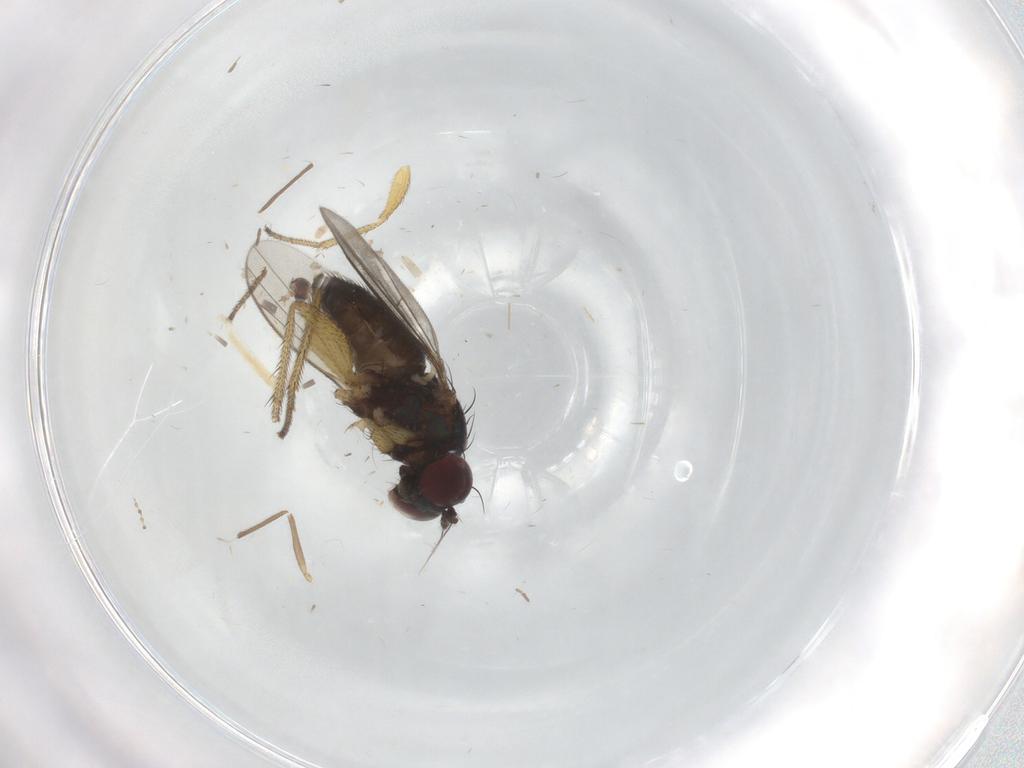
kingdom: Animalia
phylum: Arthropoda
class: Insecta
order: Diptera
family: Dolichopodidae
